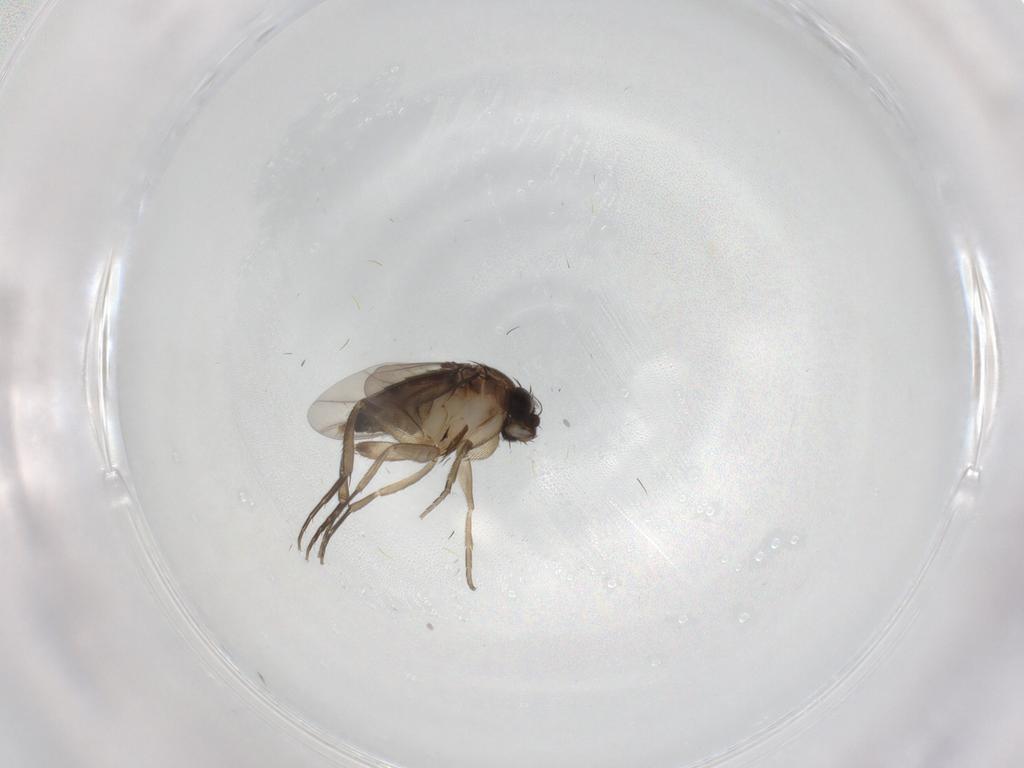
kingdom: Animalia
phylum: Arthropoda
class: Insecta
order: Diptera
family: Phoridae
